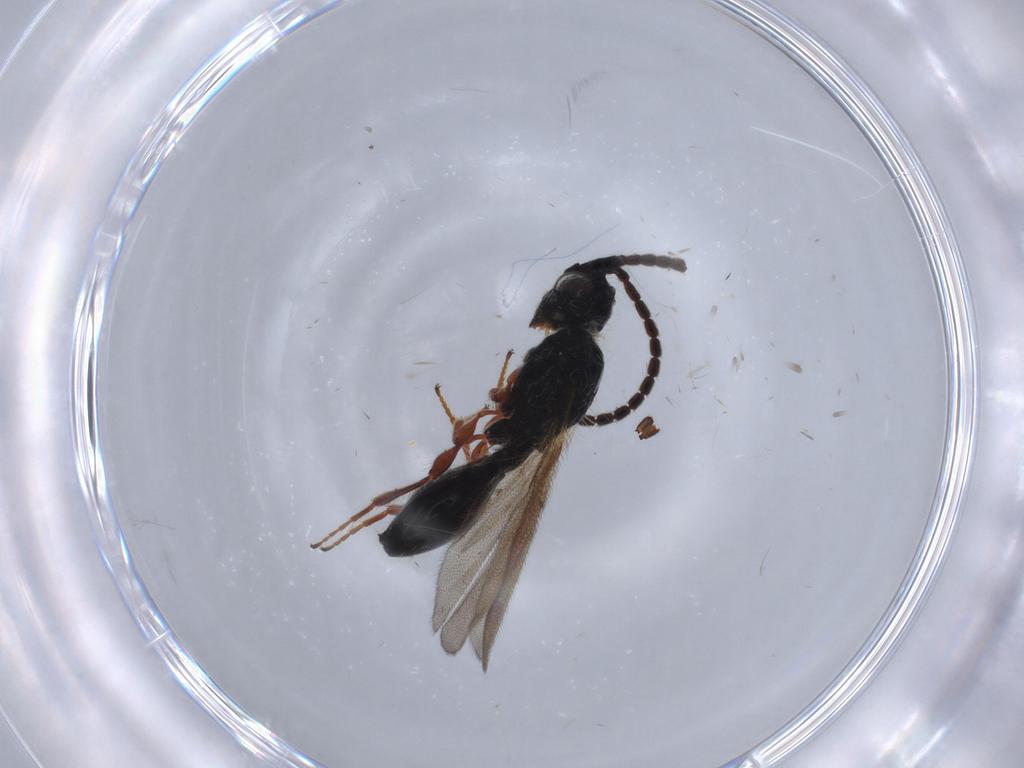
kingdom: Animalia
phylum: Arthropoda
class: Insecta
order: Hymenoptera
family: Diapriidae
